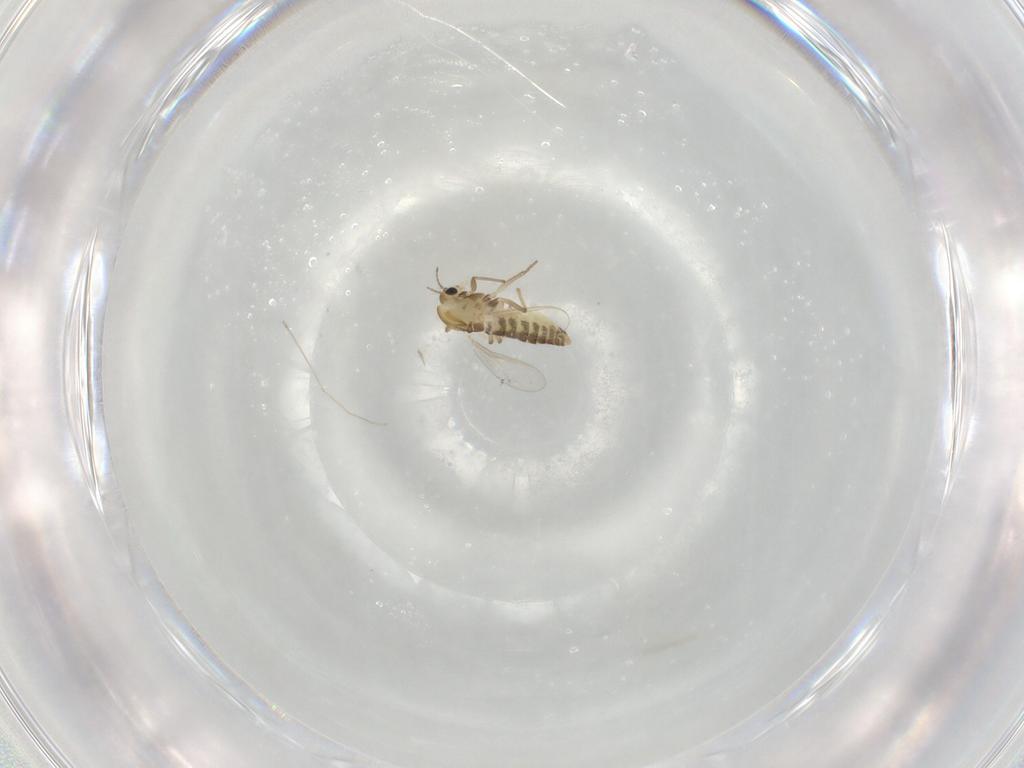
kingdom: Animalia
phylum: Arthropoda
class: Insecta
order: Diptera
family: Chironomidae
